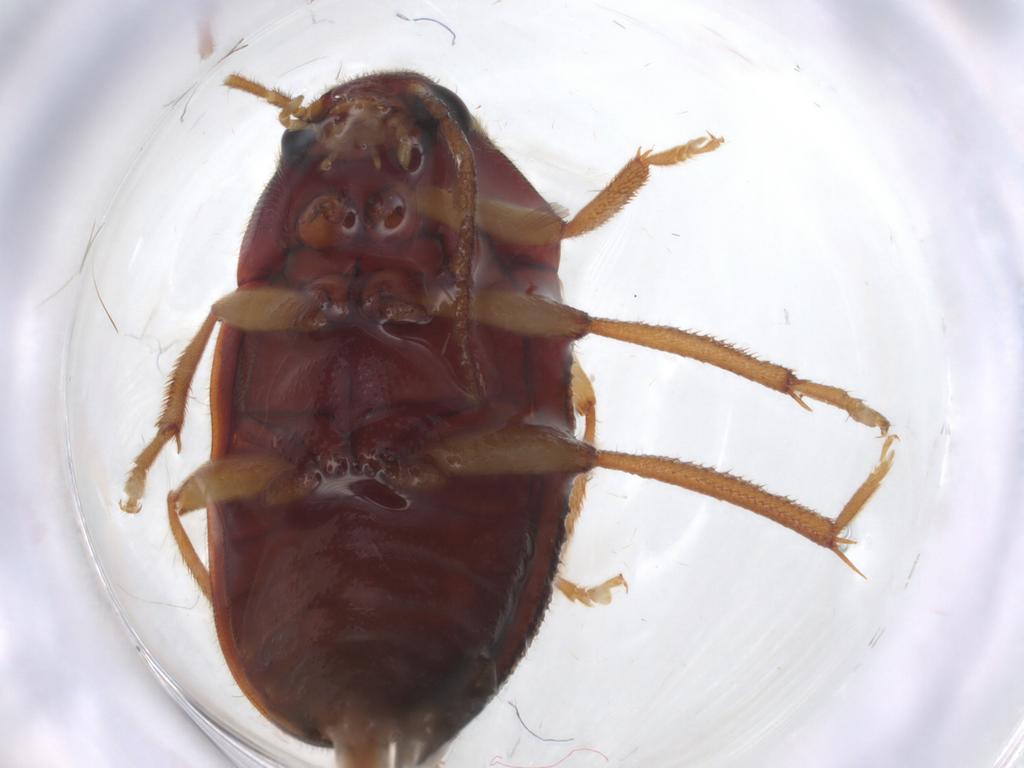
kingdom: Animalia
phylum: Arthropoda
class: Insecta
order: Coleoptera
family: Ptilodactylidae
